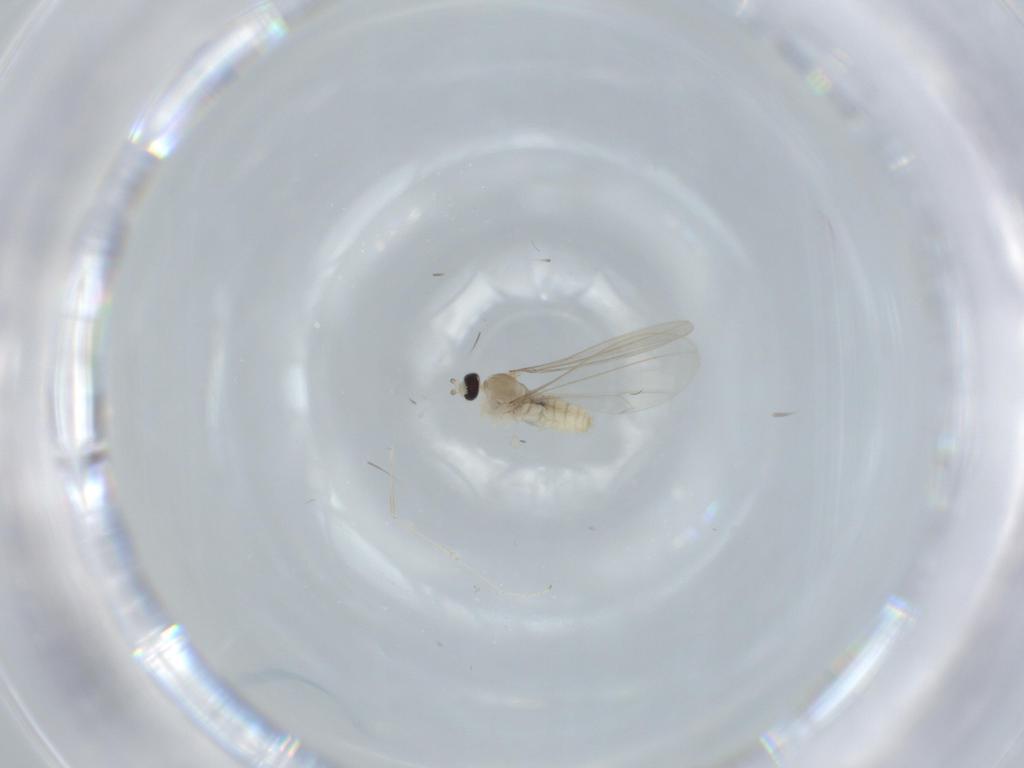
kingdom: Animalia
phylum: Arthropoda
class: Insecta
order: Diptera
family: Cecidomyiidae
